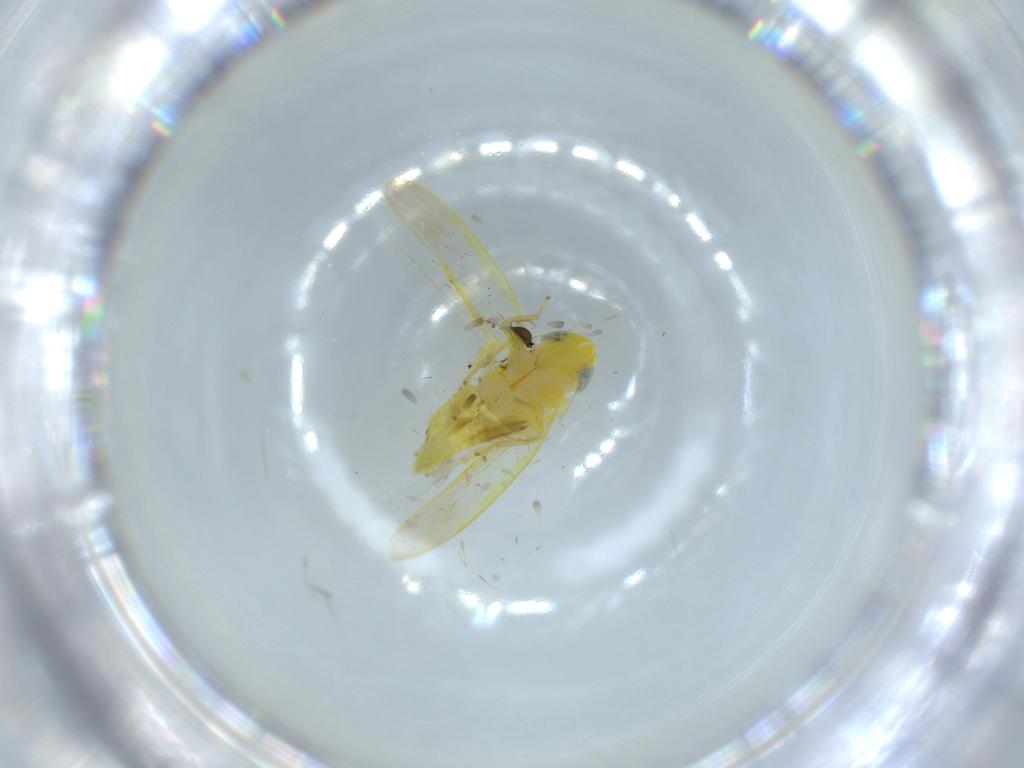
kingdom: Animalia
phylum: Arthropoda
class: Insecta
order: Hemiptera
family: Cicadellidae
